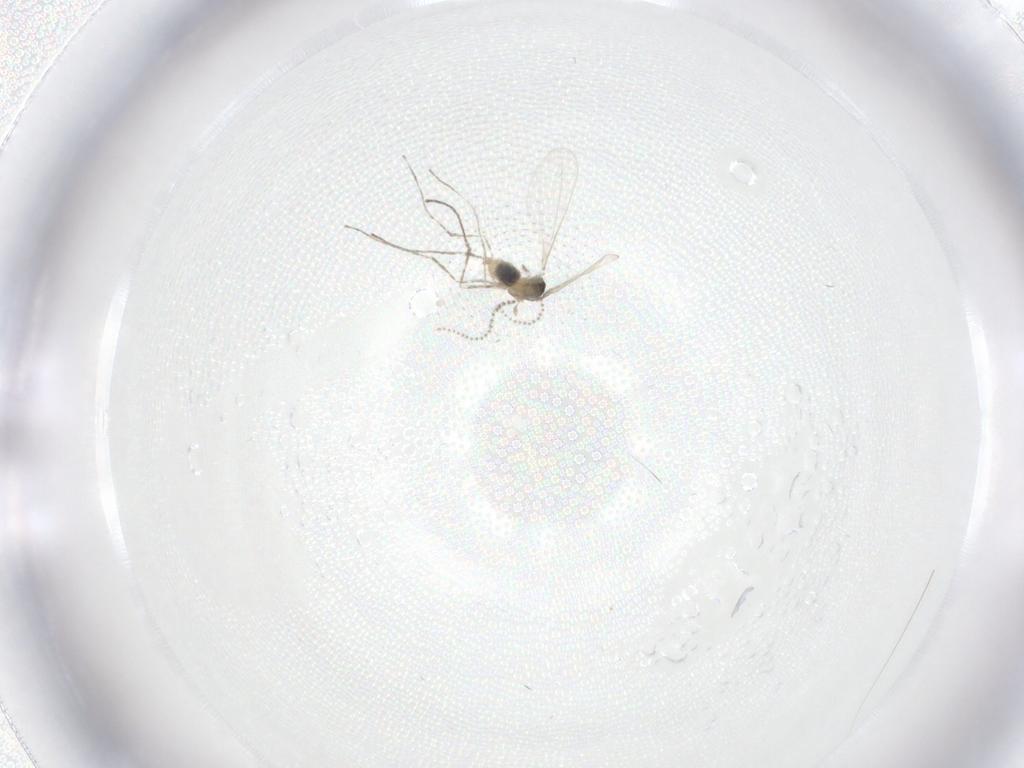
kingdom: Animalia
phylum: Arthropoda
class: Insecta
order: Diptera
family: Cecidomyiidae
